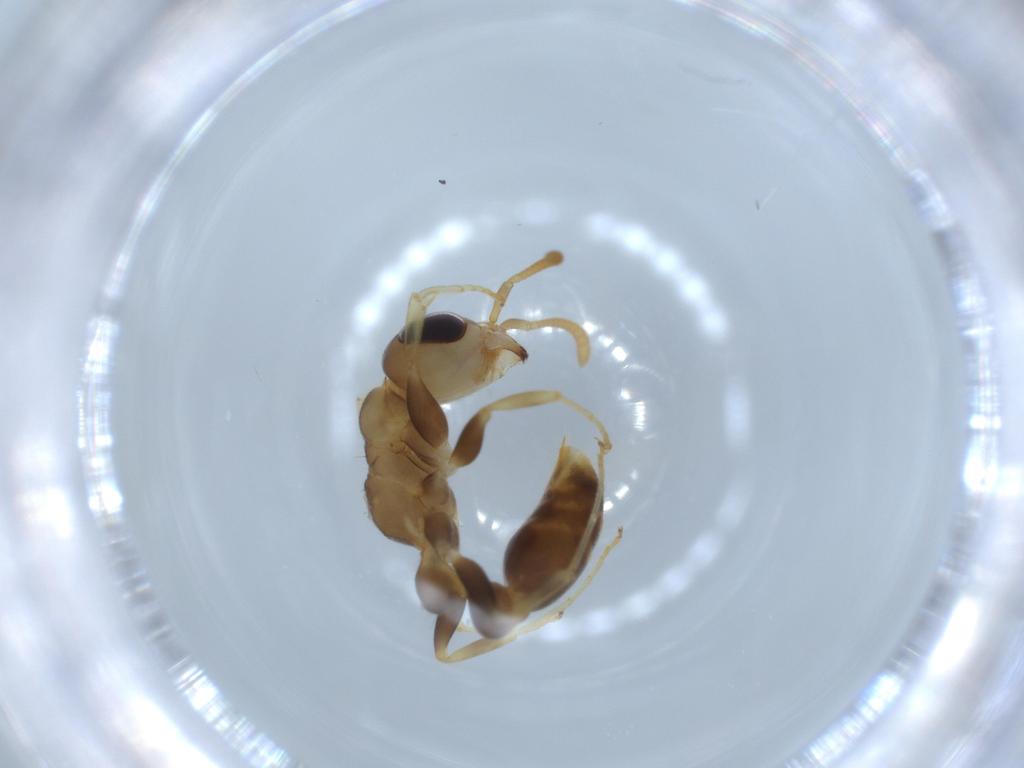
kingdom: Animalia
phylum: Arthropoda
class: Insecta
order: Hymenoptera
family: Formicidae
